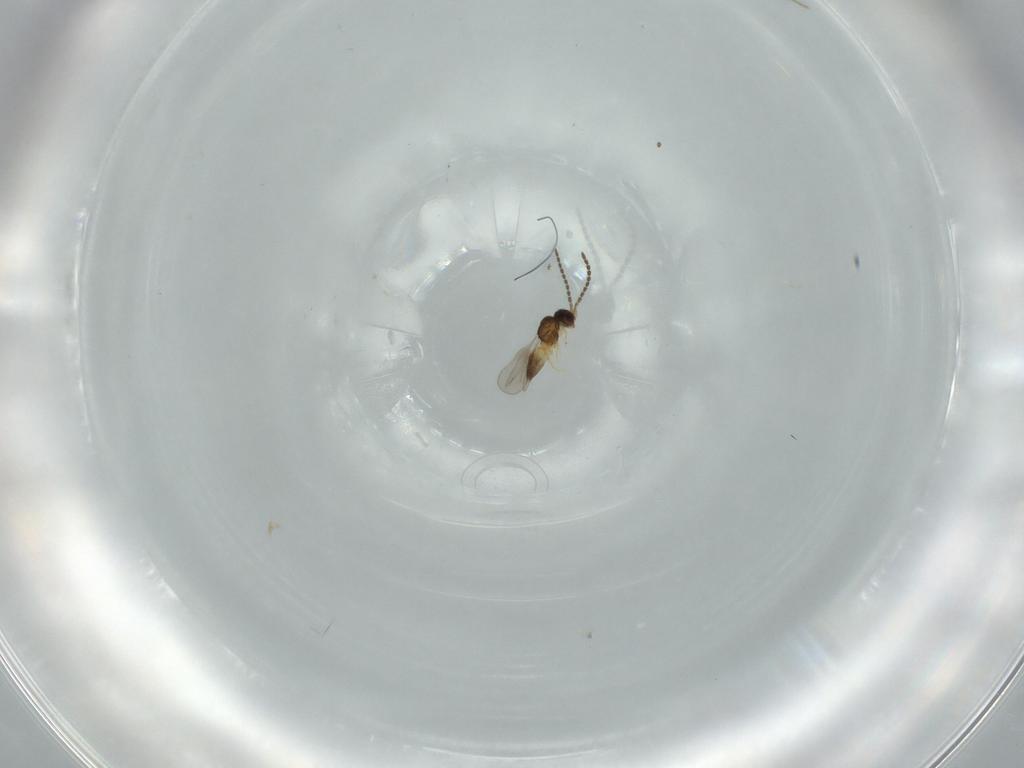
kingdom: Animalia
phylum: Arthropoda
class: Insecta
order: Hymenoptera
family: Ceraphronidae
